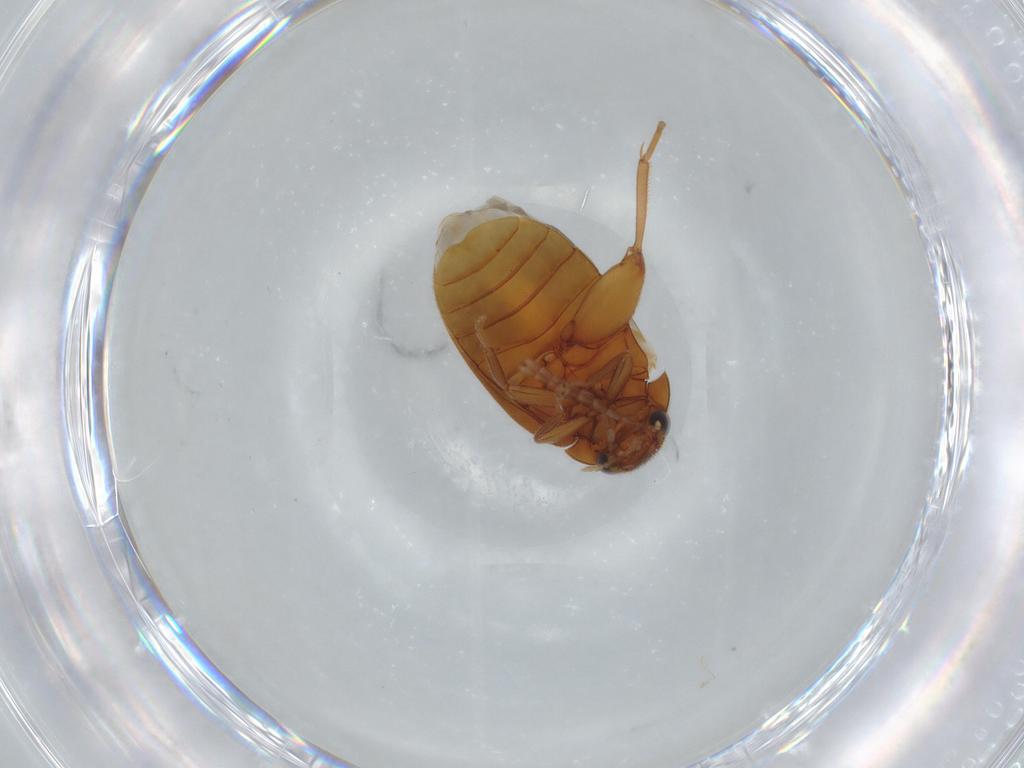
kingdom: Animalia
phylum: Arthropoda
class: Insecta
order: Coleoptera
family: Scirtidae
